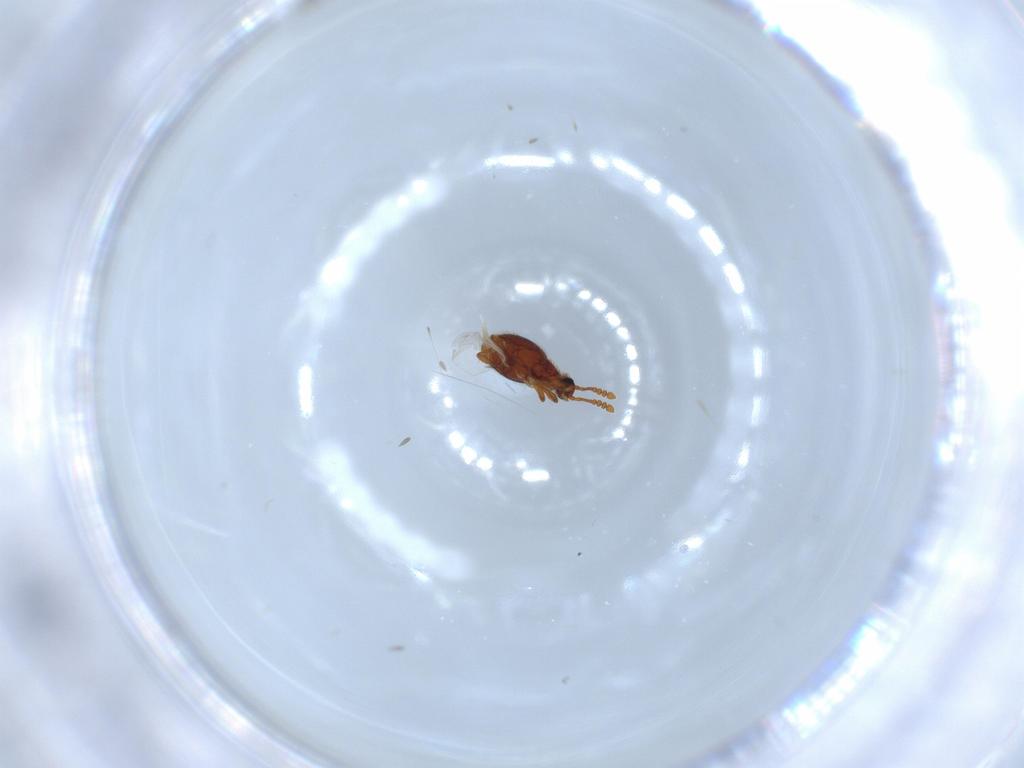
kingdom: Animalia
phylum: Arthropoda
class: Insecta
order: Coleoptera
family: Staphylinidae
